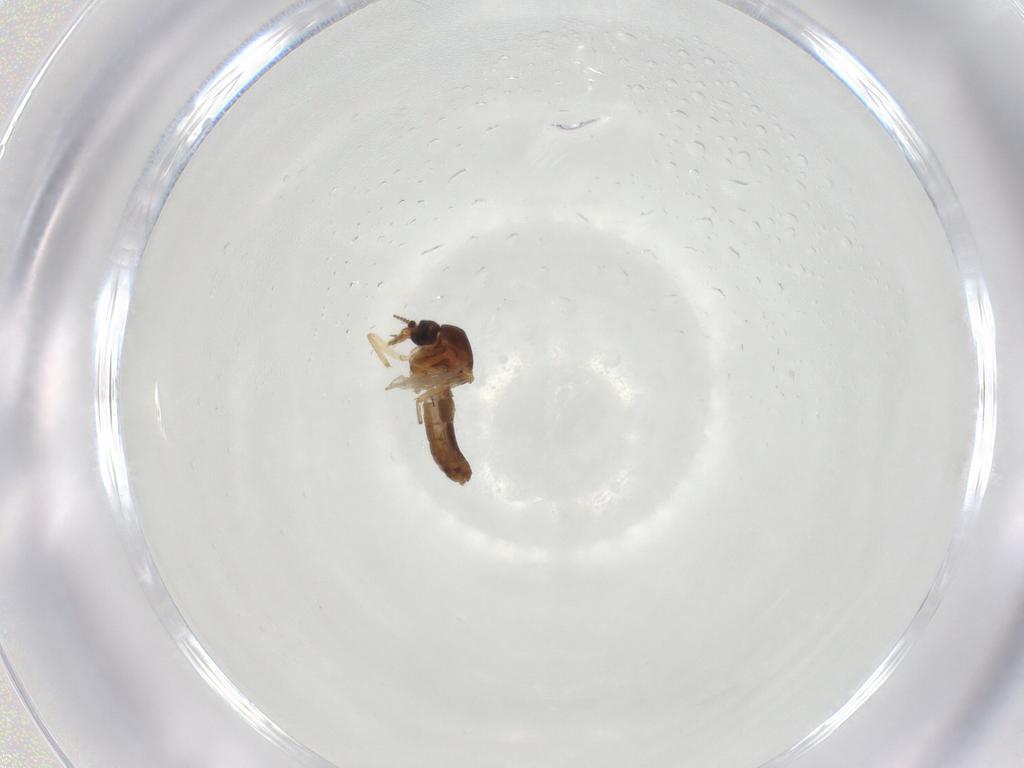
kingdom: Animalia
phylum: Arthropoda
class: Insecta
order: Diptera
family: Ceratopogonidae
